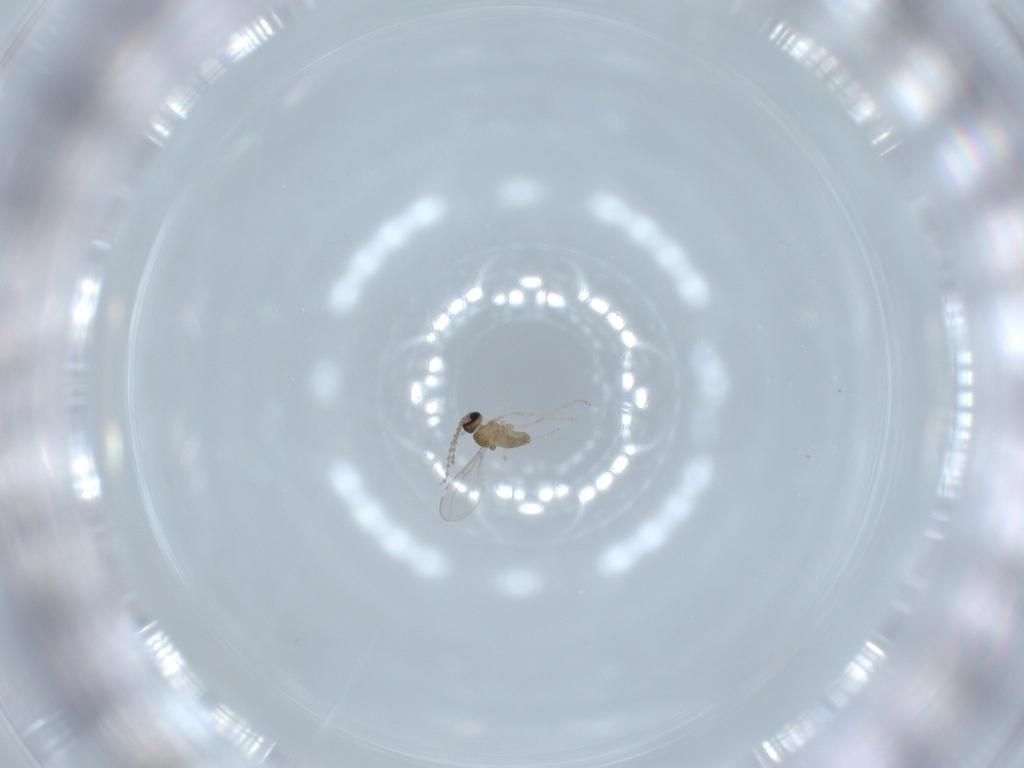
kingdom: Animalia
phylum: Arthropoda
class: Insecta
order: Diptera
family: Cecidomyiidae
